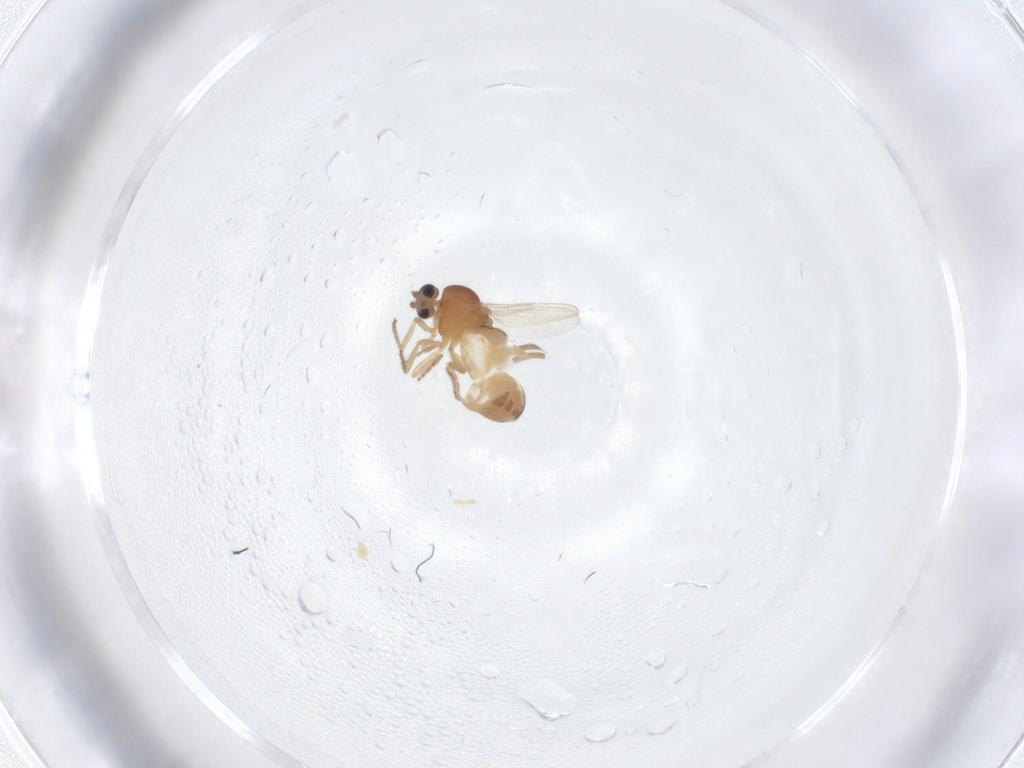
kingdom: Animalia
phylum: Arthropoda
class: Insecta
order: Diptera
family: Ceratopogonidae
